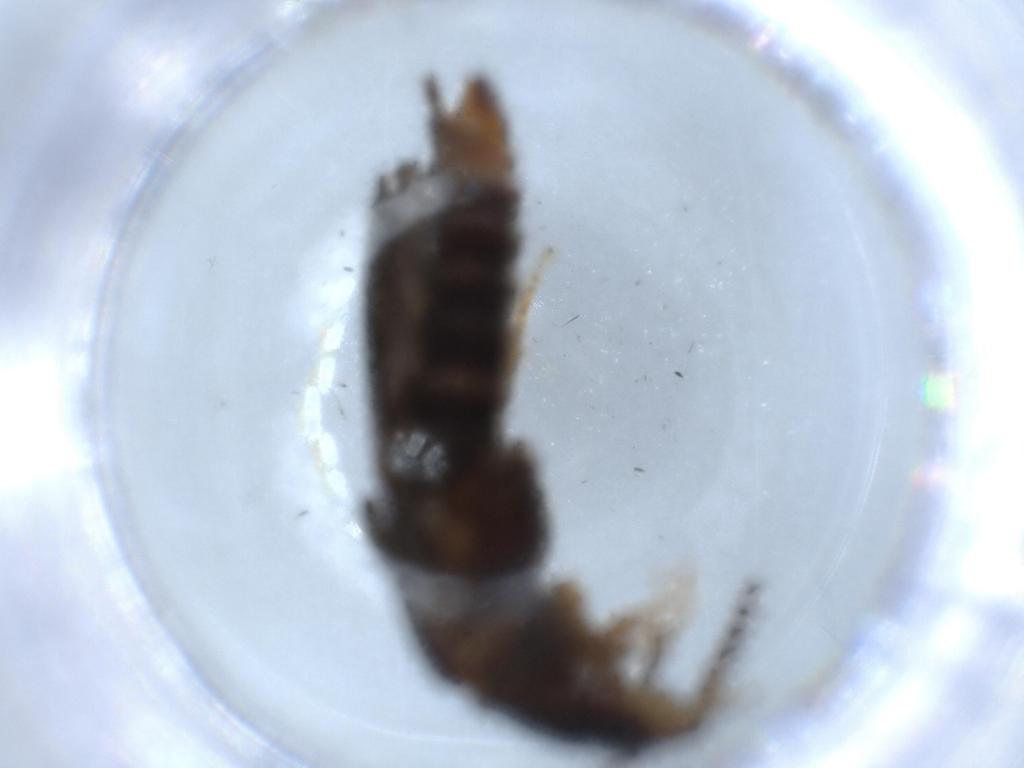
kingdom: Animalia
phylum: Arthropoda
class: Insecta
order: Coleoptera
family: Phengodidae
